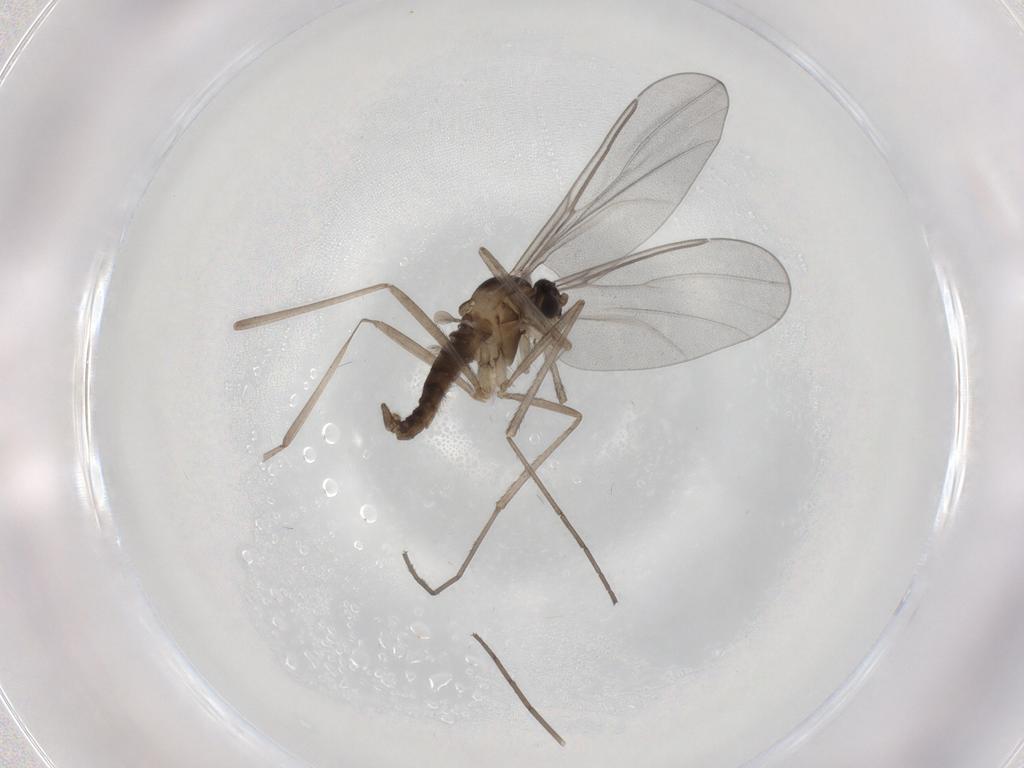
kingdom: Animalia
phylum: Arthropoda
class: Insecta
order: Diptera
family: Cecidomyiidae
